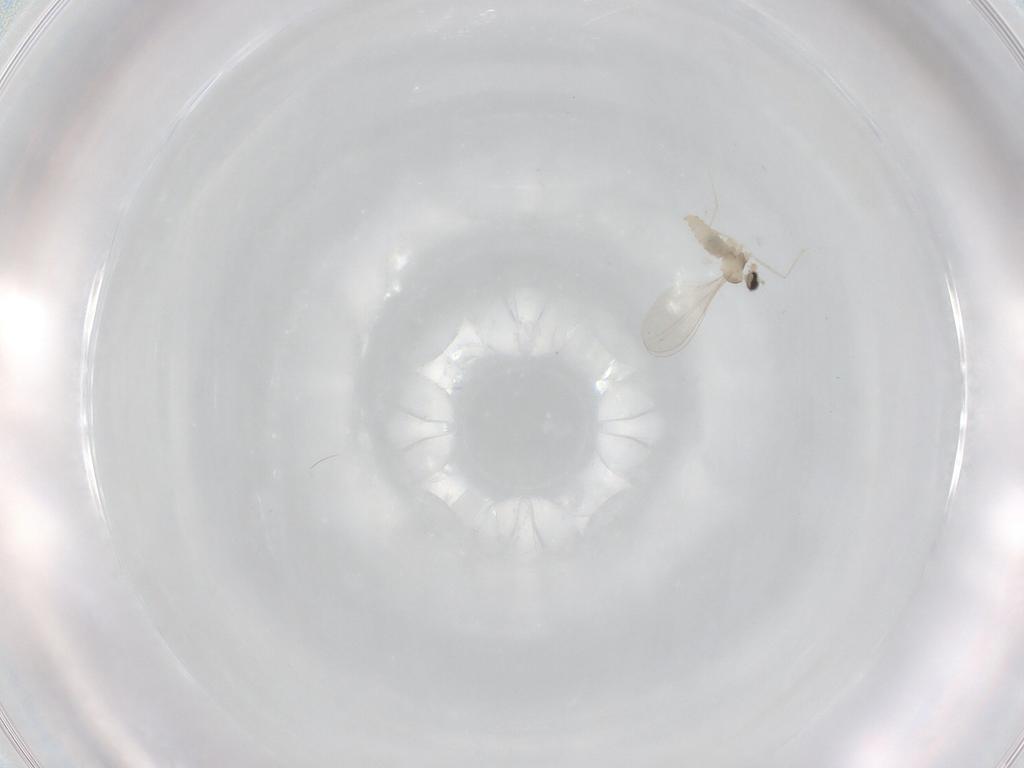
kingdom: Animalia
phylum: Arthropoda
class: Insecta
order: Diptera
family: Cecidomyiidae
